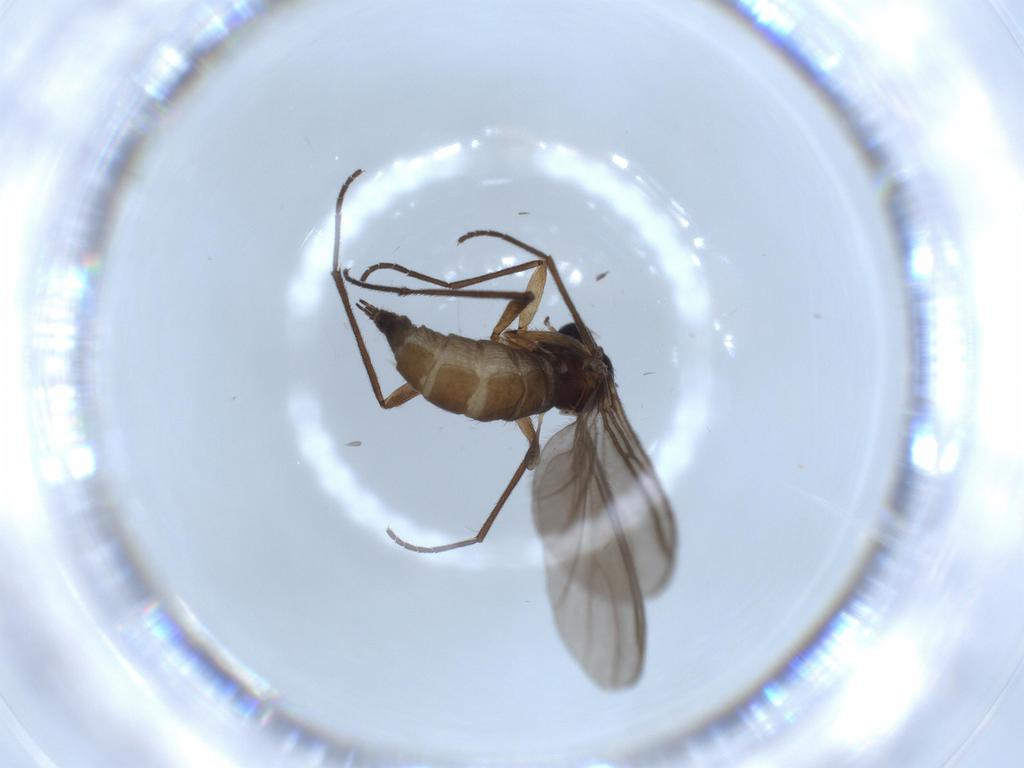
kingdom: Animalia
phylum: Arthropoda
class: Insecta
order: Diptera
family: Sciaridae
